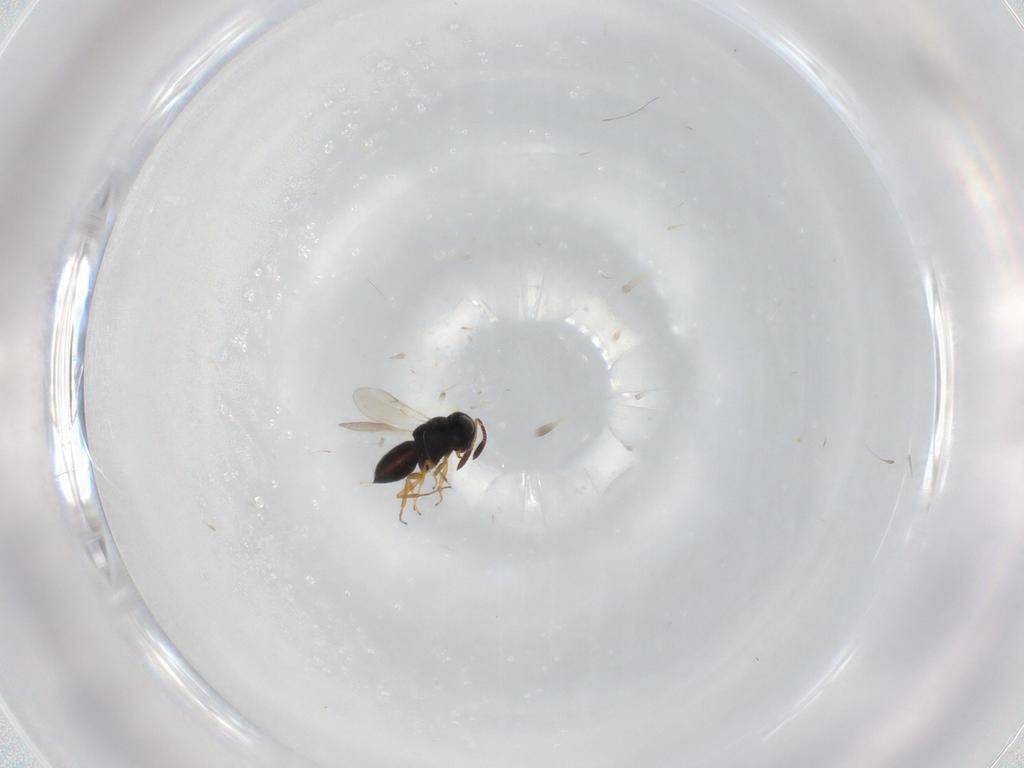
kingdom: Animalia
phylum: Arthropoda
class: Insecta
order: Hymenoptera
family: Scelionidae
